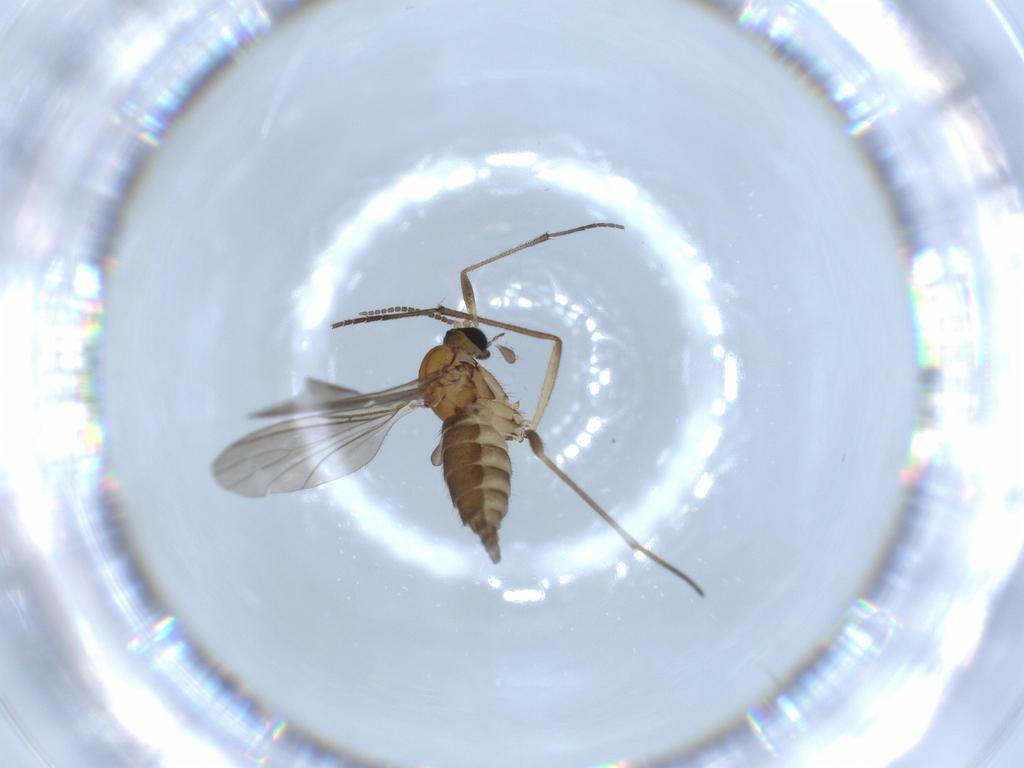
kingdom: Animalia
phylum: Arthropoda
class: Insecta
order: Diptera
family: Sciaridae
